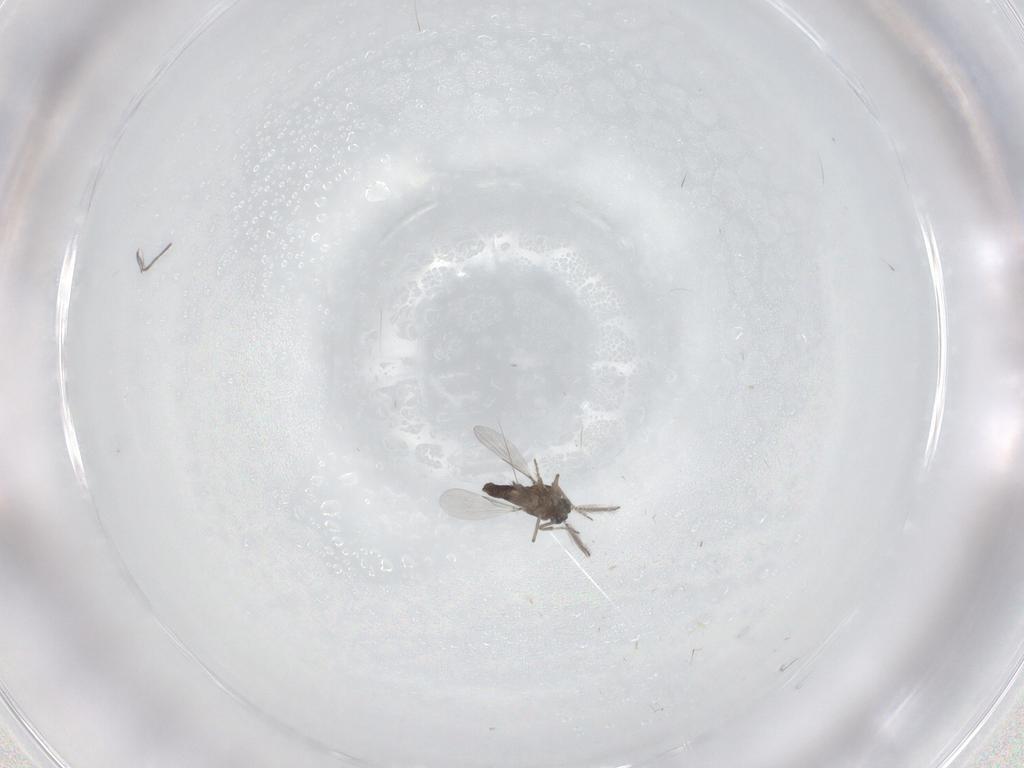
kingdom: Animalia
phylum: Arthropoda
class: Insecta
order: Diptera
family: Ceratopogonidae
